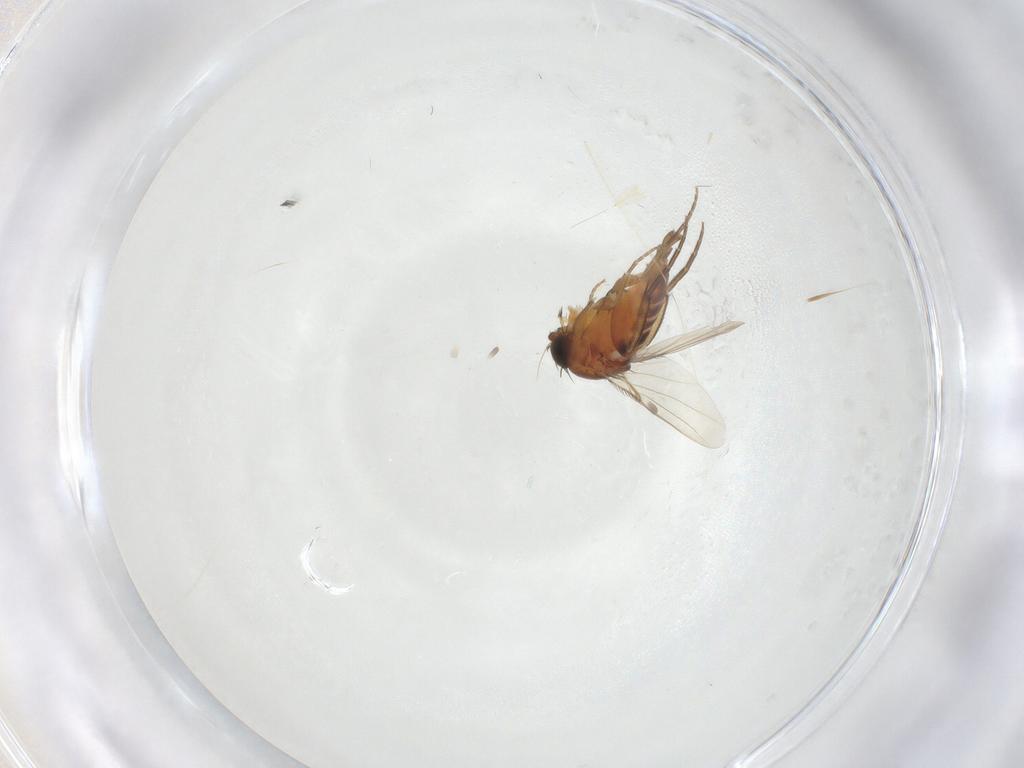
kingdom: Animalia
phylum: Arthropoda
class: Insecta
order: Diptera
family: Phoridae
